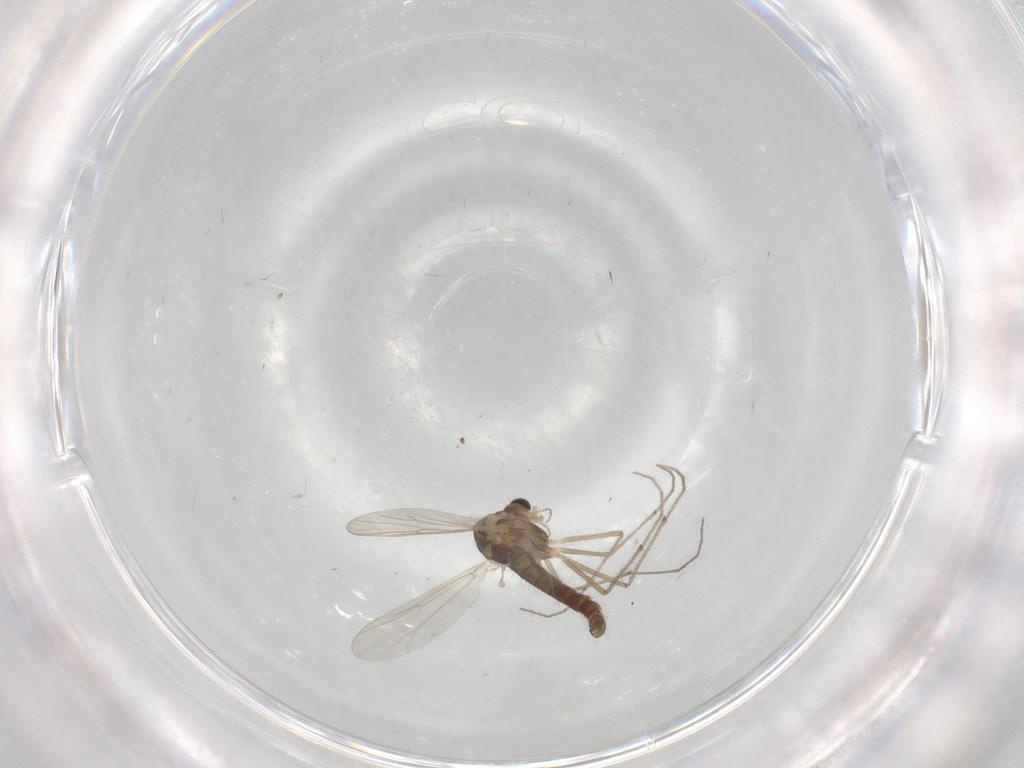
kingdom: Animalia
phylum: Arthropoda
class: Insecta
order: Diptera
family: Chironomidae
